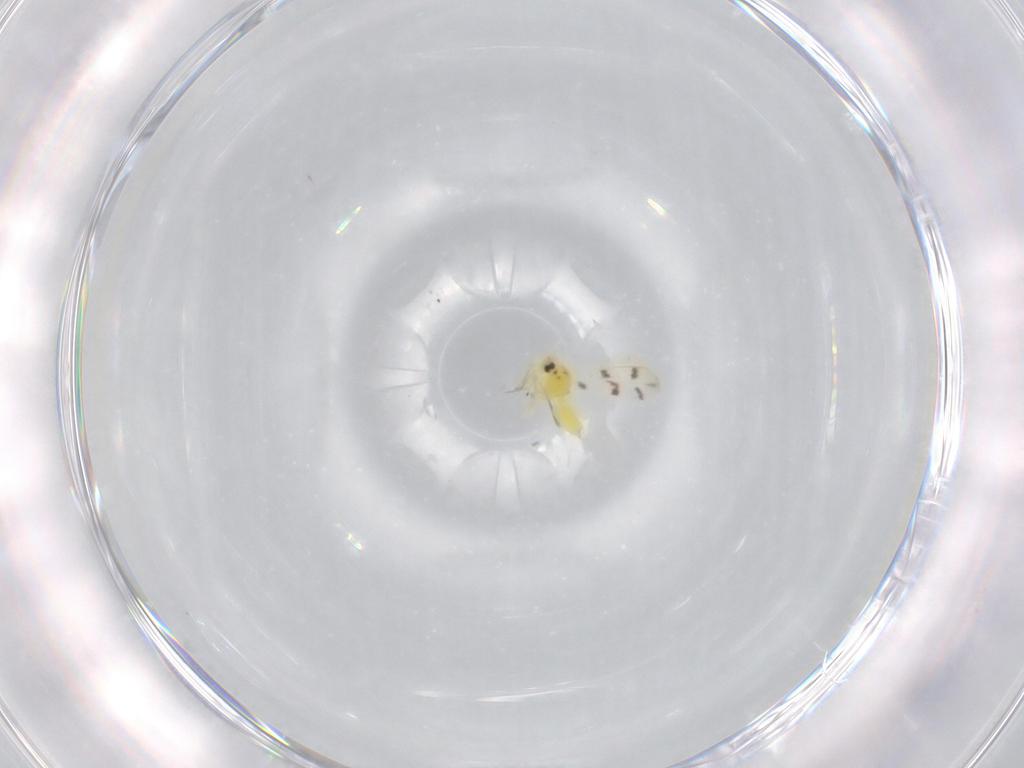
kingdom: Animalia
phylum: Arthropoda
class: Insecta
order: Hemiptera
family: Aleyrodidae
